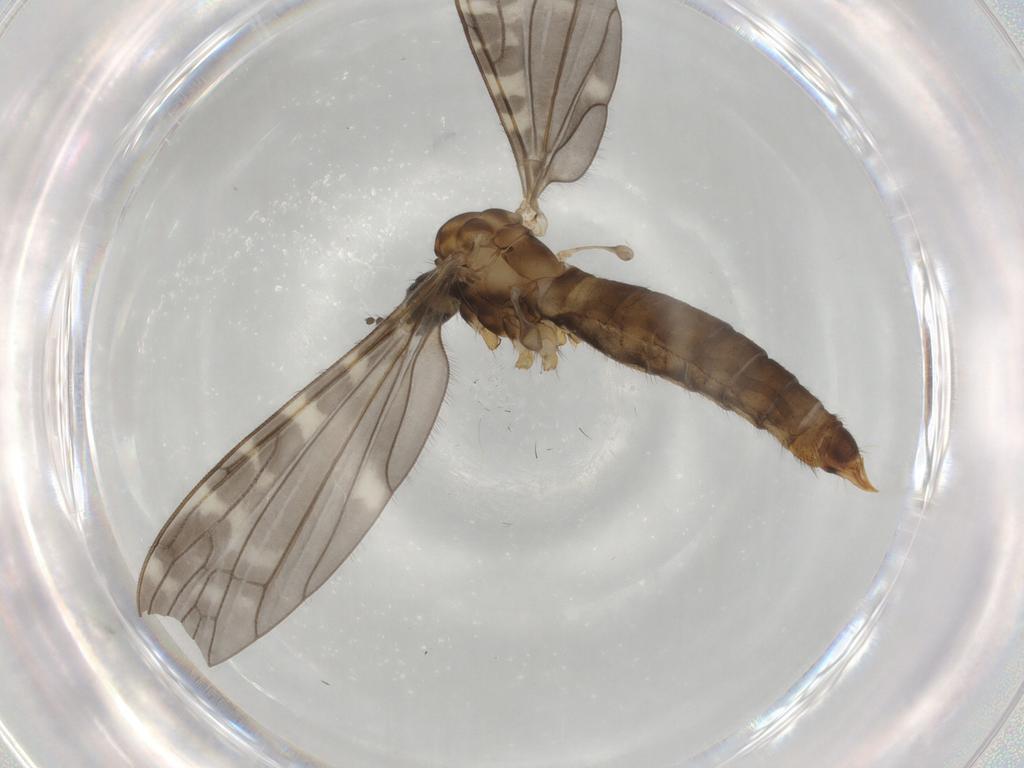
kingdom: Animalia
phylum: Arthropoda
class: Insecta
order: Diptera
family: Limoniidae
